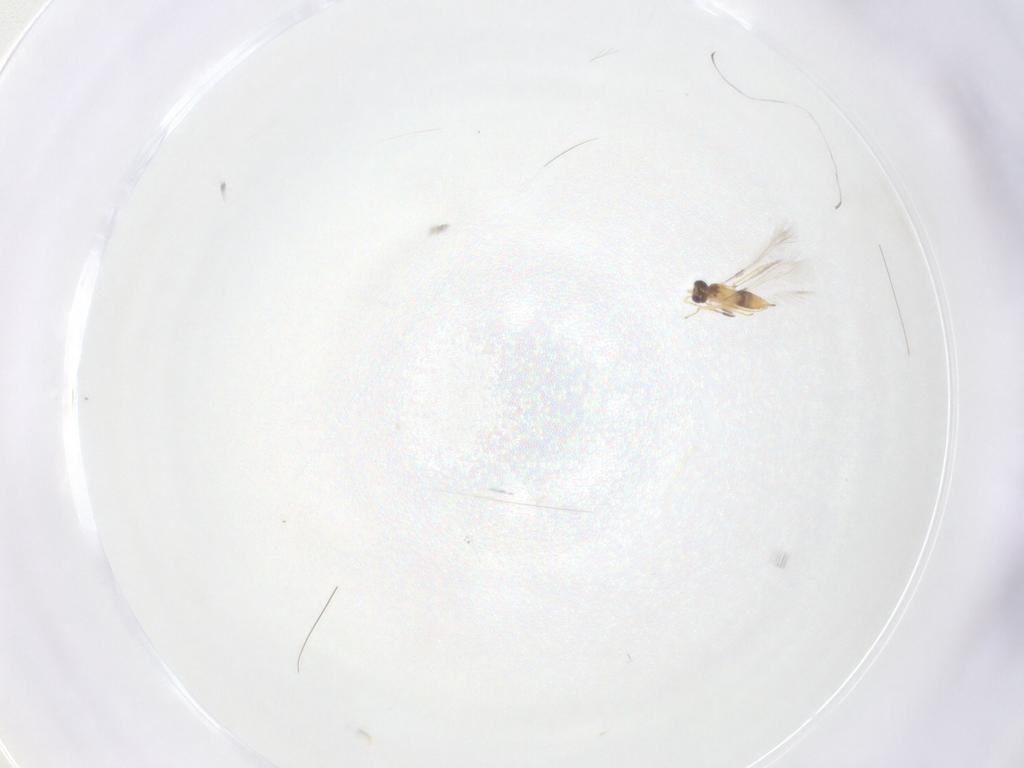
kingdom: Animalia
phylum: Arthropoda
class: Insecta
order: Hymenoptera
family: Mymaridae
